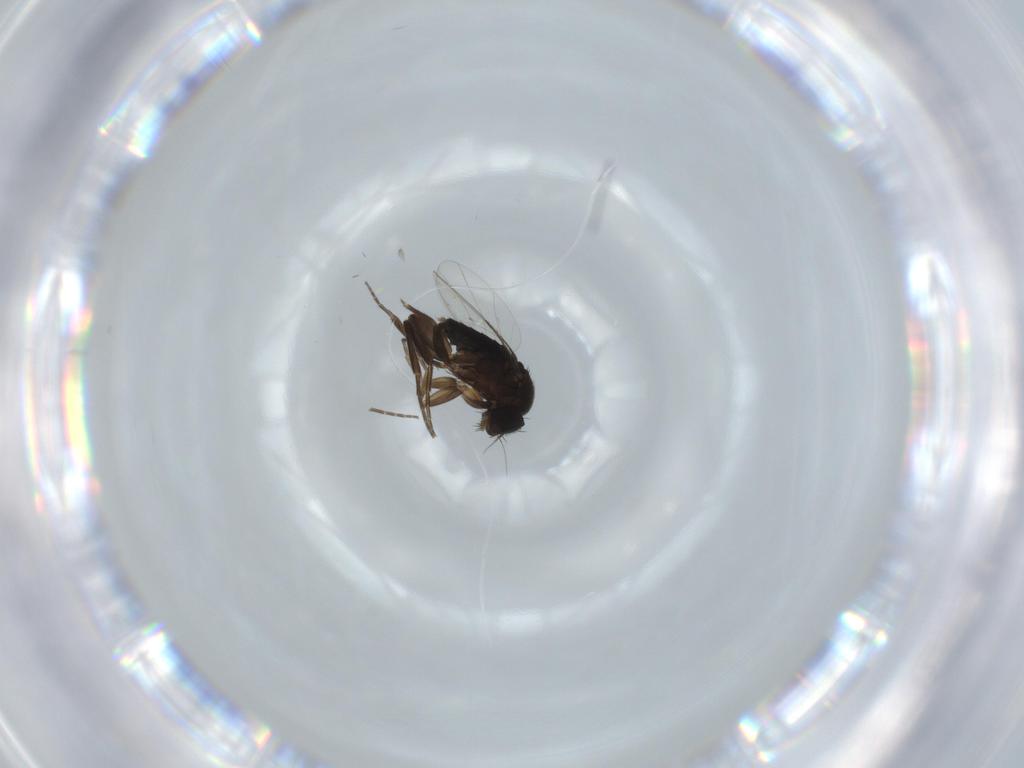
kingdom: Animalia
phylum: Arthropoda
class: Insecta
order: Diptera
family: Phoridae
